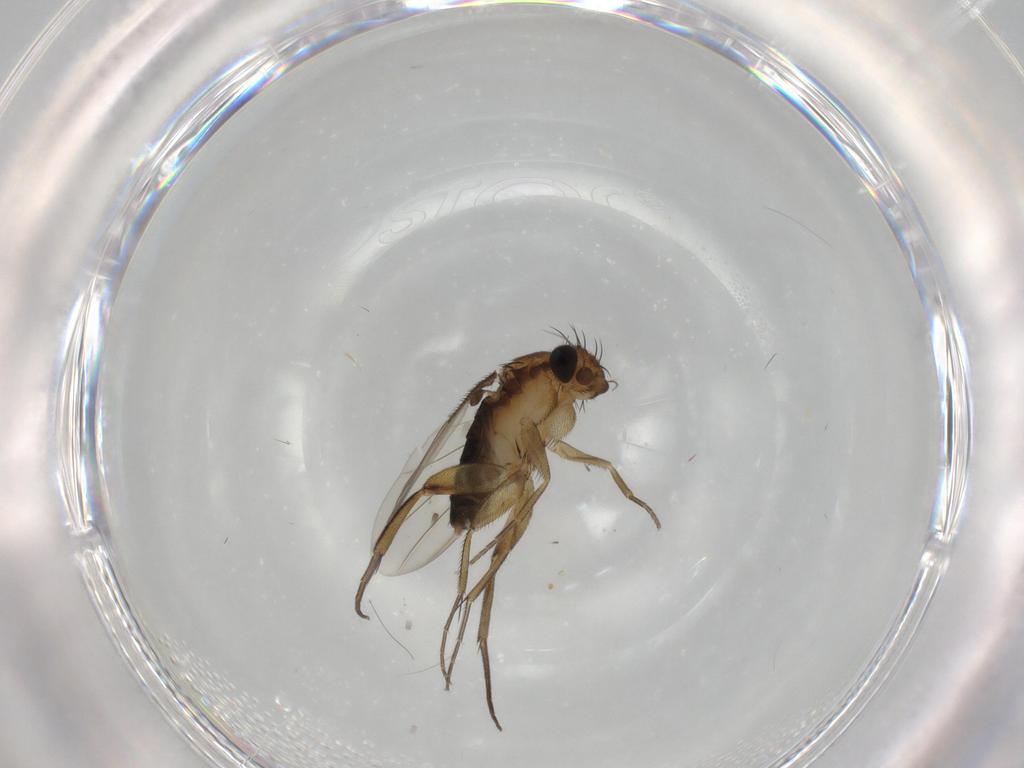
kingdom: Animalia
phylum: Arthropoda
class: Insecta
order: Diptera
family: Phoridae
